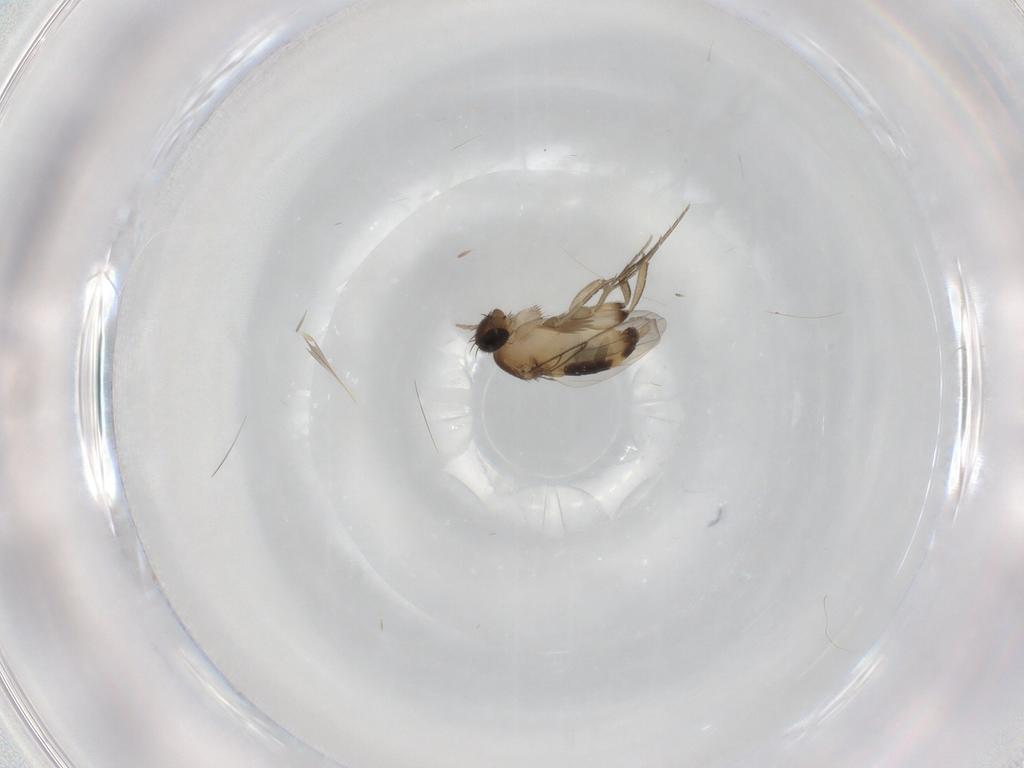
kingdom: Animalia
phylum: Arthropoda
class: Insecta
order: Diptera
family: Phoridae
